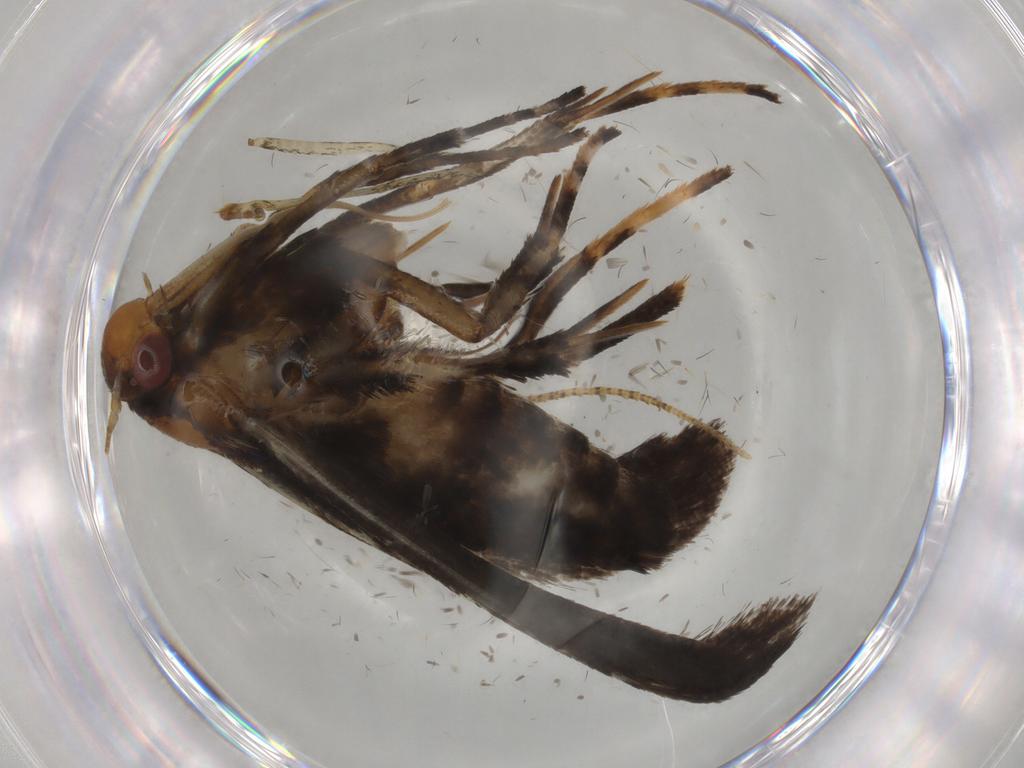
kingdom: Animalia
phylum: Arthropoda
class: Insecta
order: Lepidoptera
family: Gelechiidae
